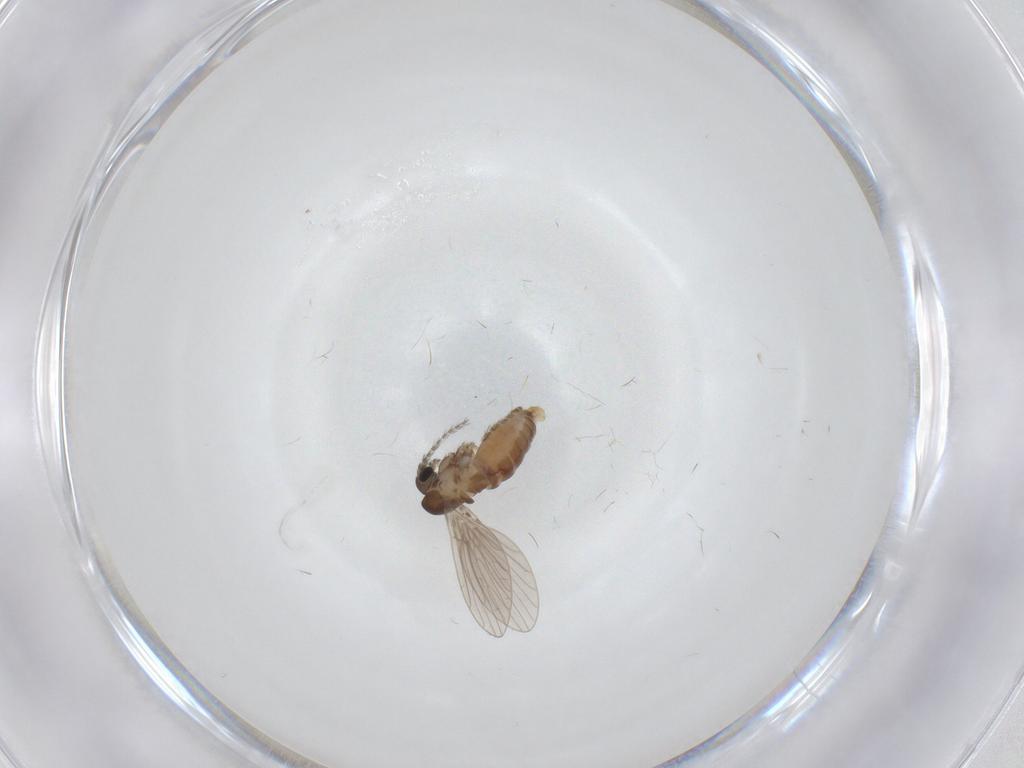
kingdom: Animalia
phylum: Arthropoda
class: Insecta
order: Diptera
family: Psychodidae
